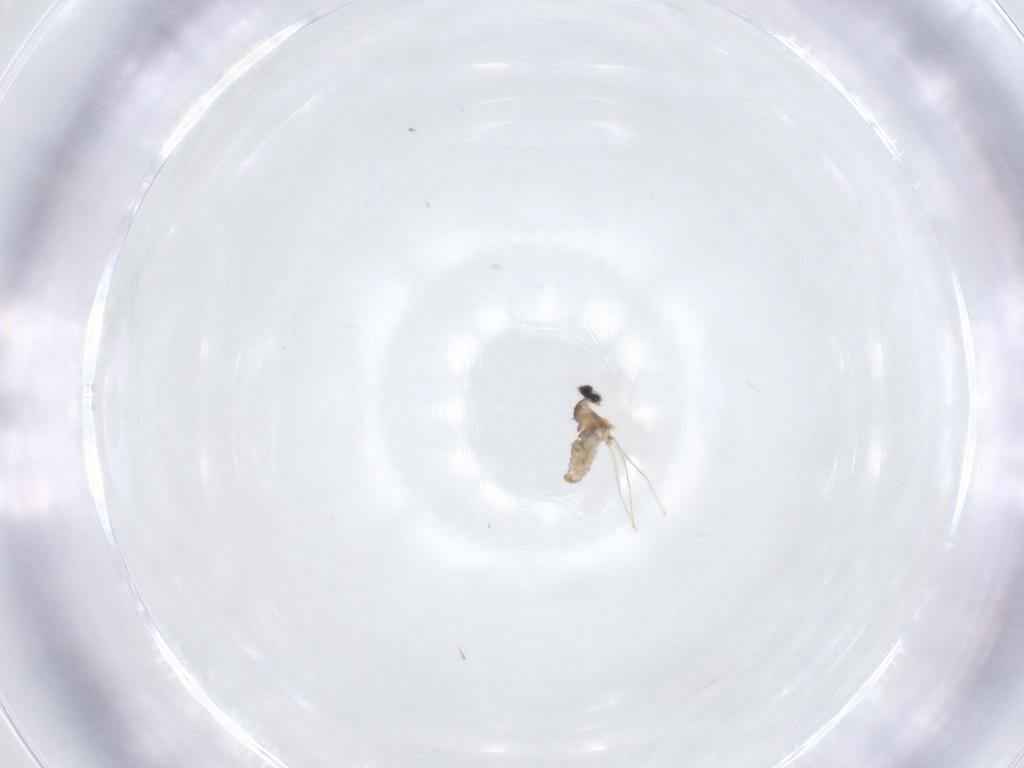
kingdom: Animalia
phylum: Arthropoda
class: Insecta
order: Diptera
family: Cecidomyiidae
